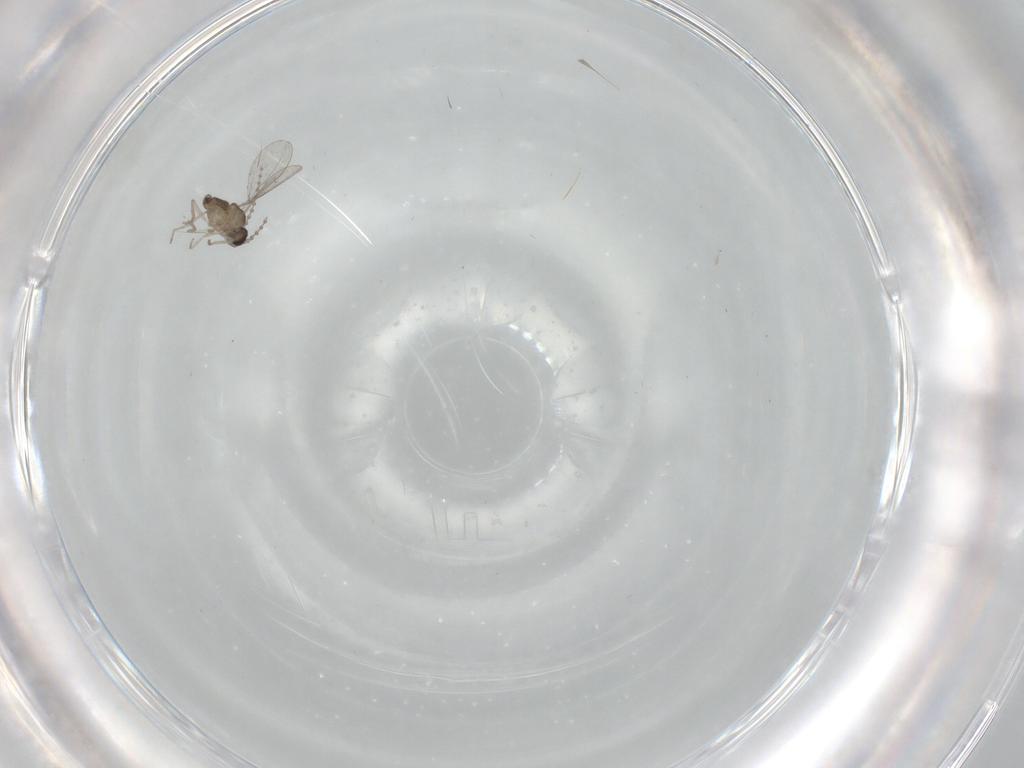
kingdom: Animalia
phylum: Arthropoda
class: Insecta
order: Diptera
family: Cecidomyiidae
